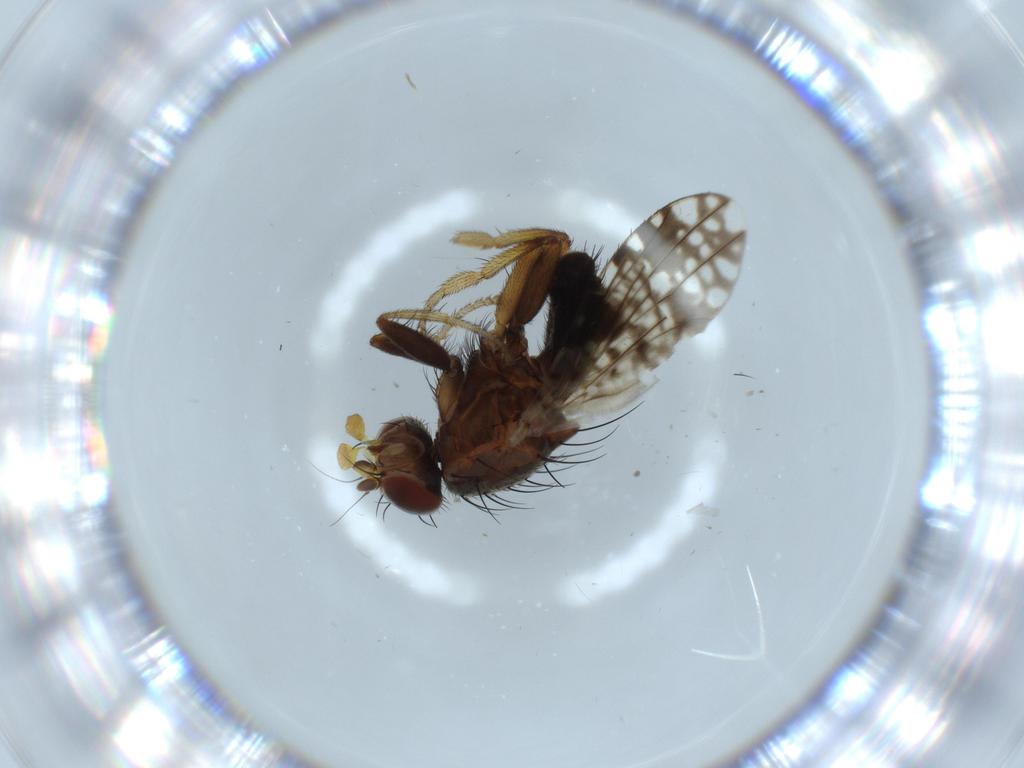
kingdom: Animalia
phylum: Arthropoda
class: Insecta
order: Diptera
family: Tephritidae
